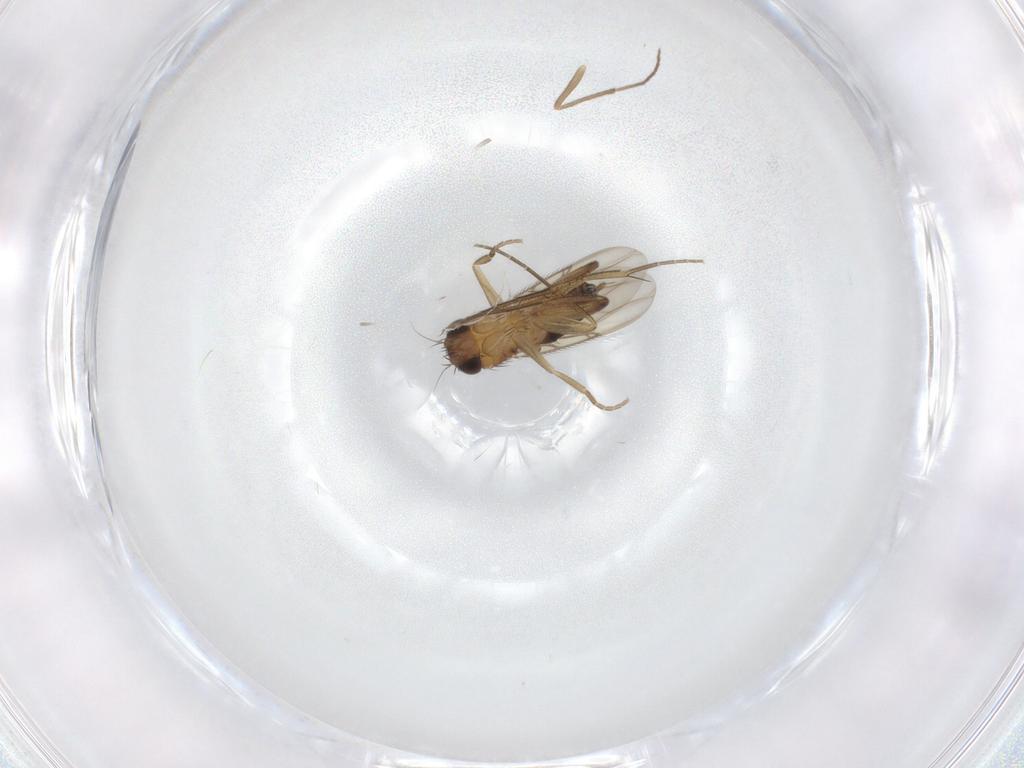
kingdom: Animalia
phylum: Arthropoda
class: Insecta
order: Diptera
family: Phoridae
